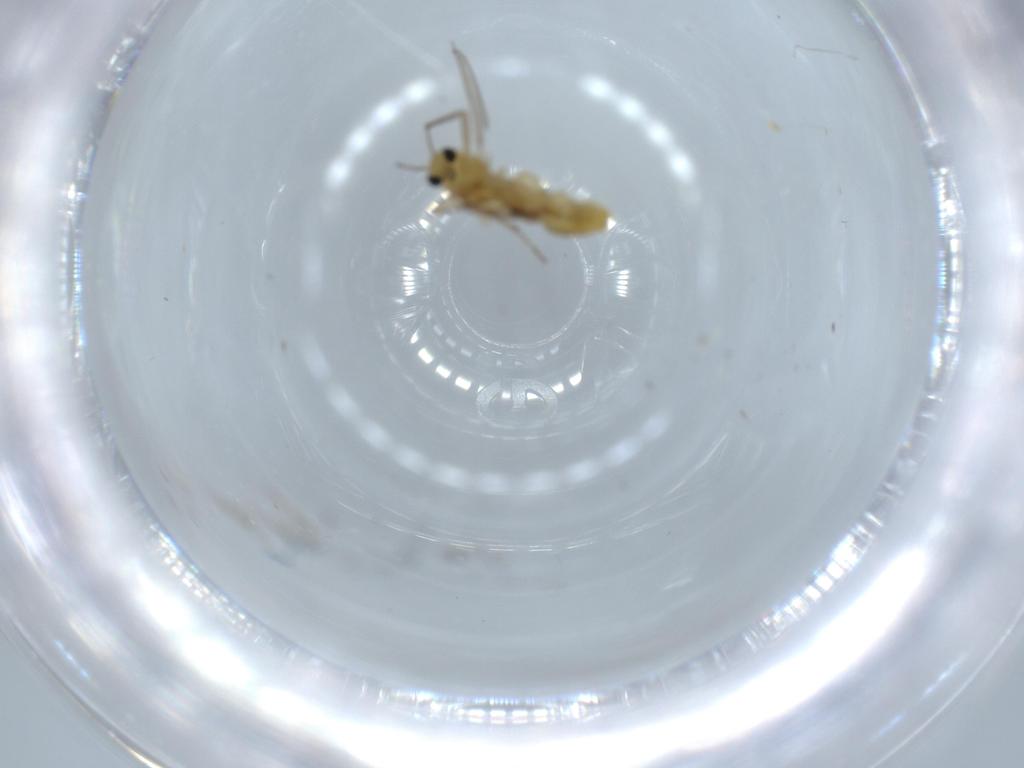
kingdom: Animalia
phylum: Arthropoda
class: Insecta
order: Diptera
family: Chironomidae
